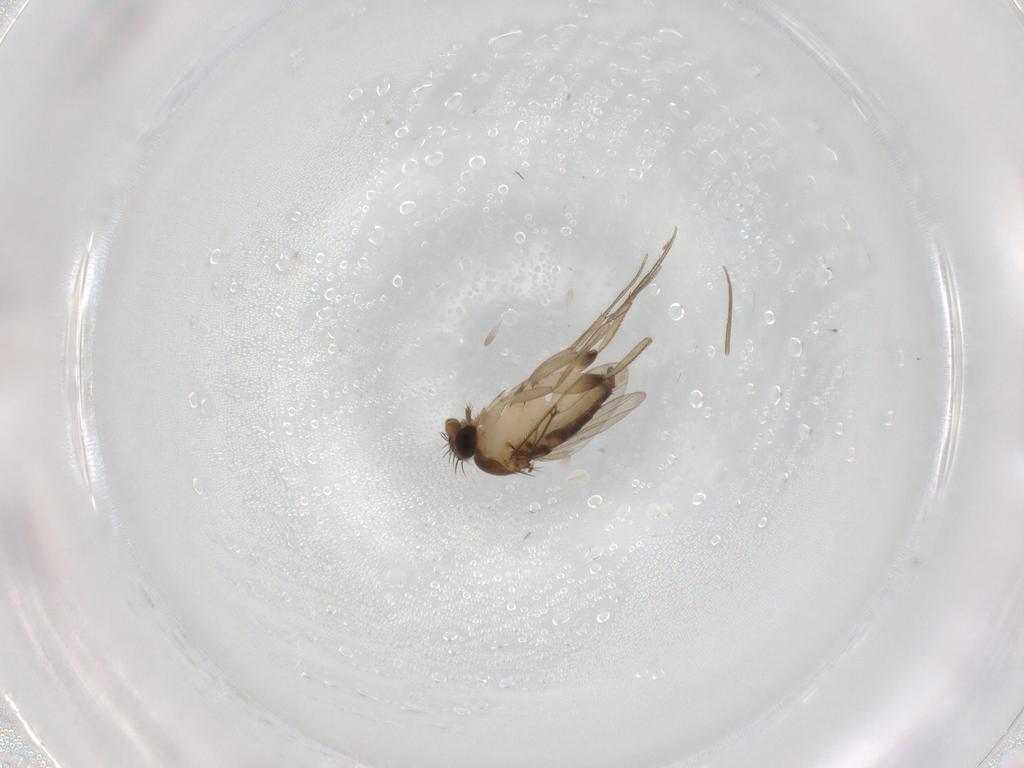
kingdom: Animalia
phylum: Arthropoda
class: Insecta
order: Diptera
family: Phoridae
